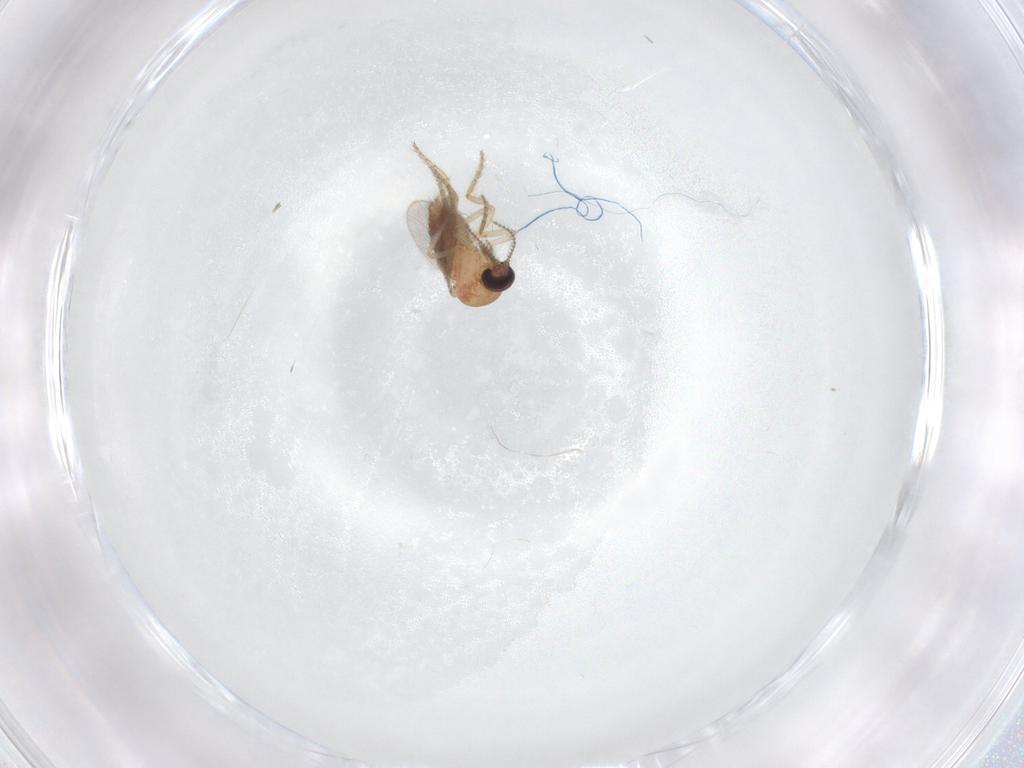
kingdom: Animalia
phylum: Arthropoda
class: Insecta
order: Diptera
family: Ceratopogonidae
